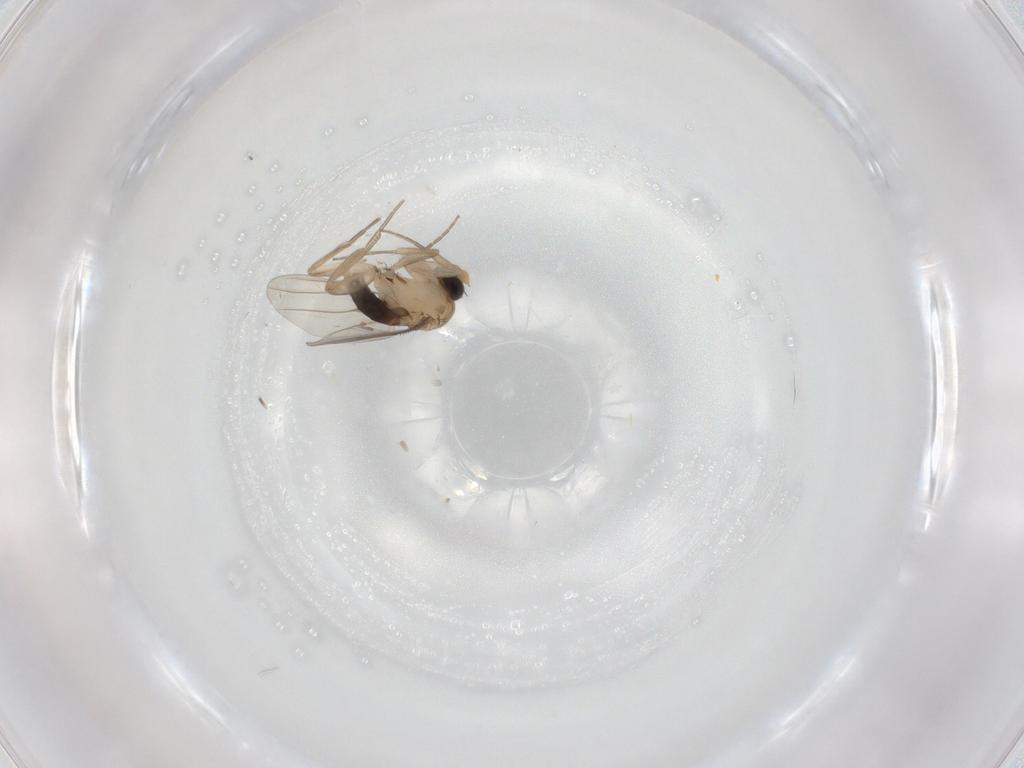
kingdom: Animalia
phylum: Arthropoda
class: Insecta
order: Diptera
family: Phoridae
